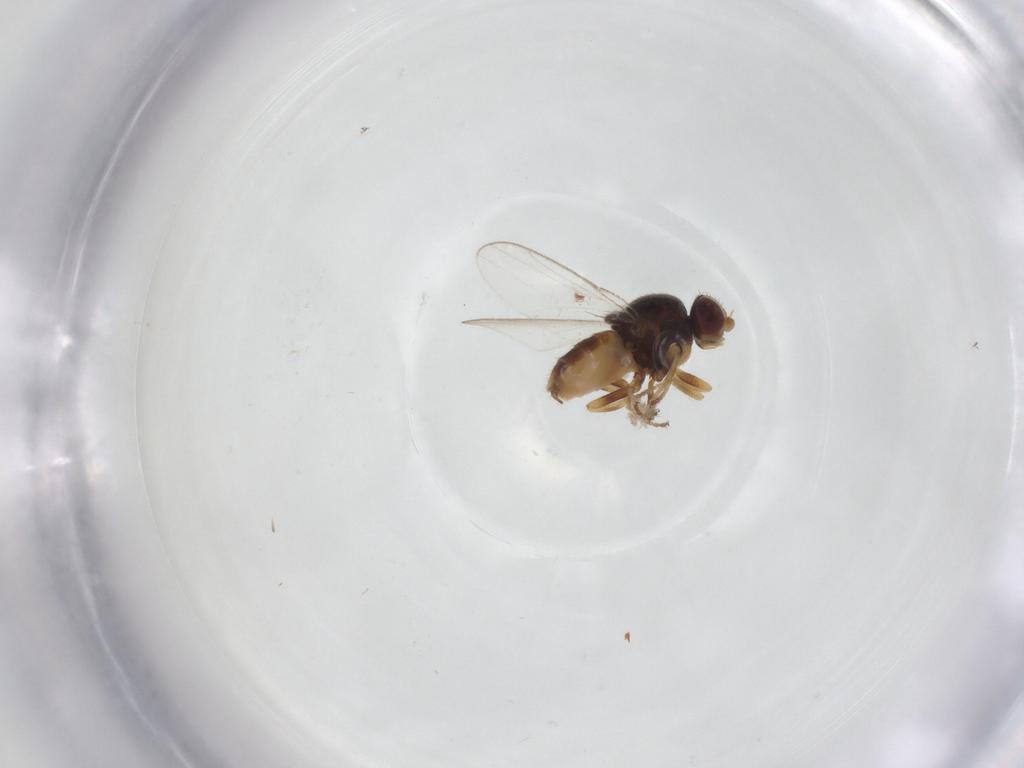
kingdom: Animalia
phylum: Arthropoda
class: Insecta
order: Diptera
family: Chloropidae
